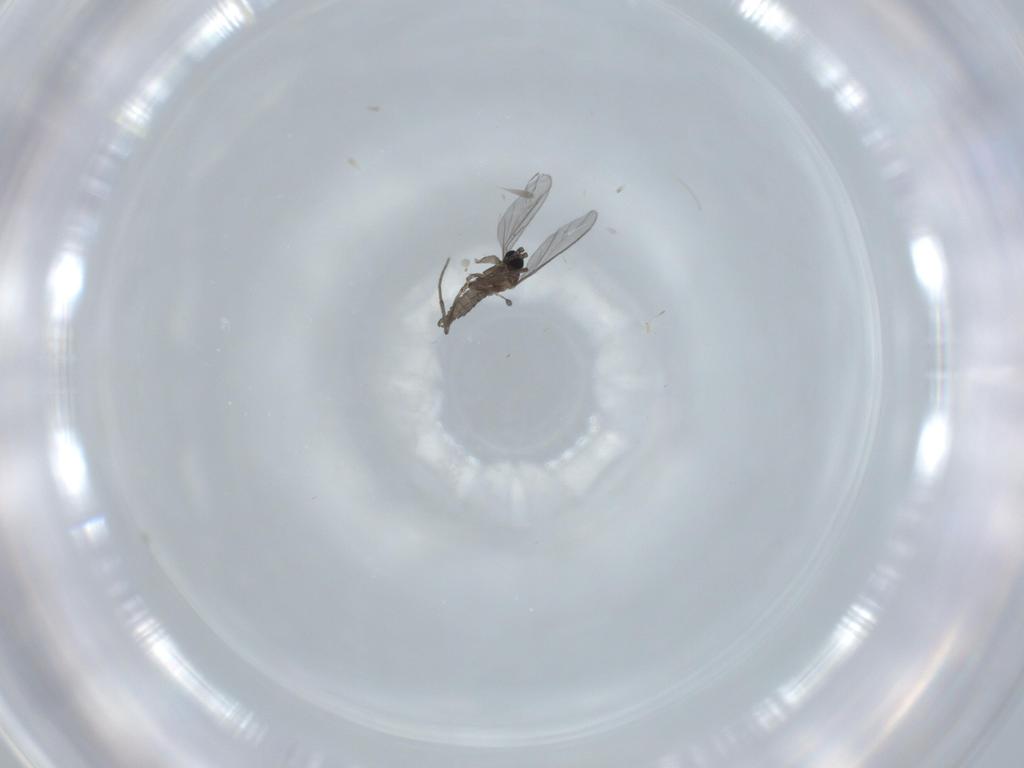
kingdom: Animalia
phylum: Arthropoda
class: Insecta
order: Diptera
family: Sciaridae
